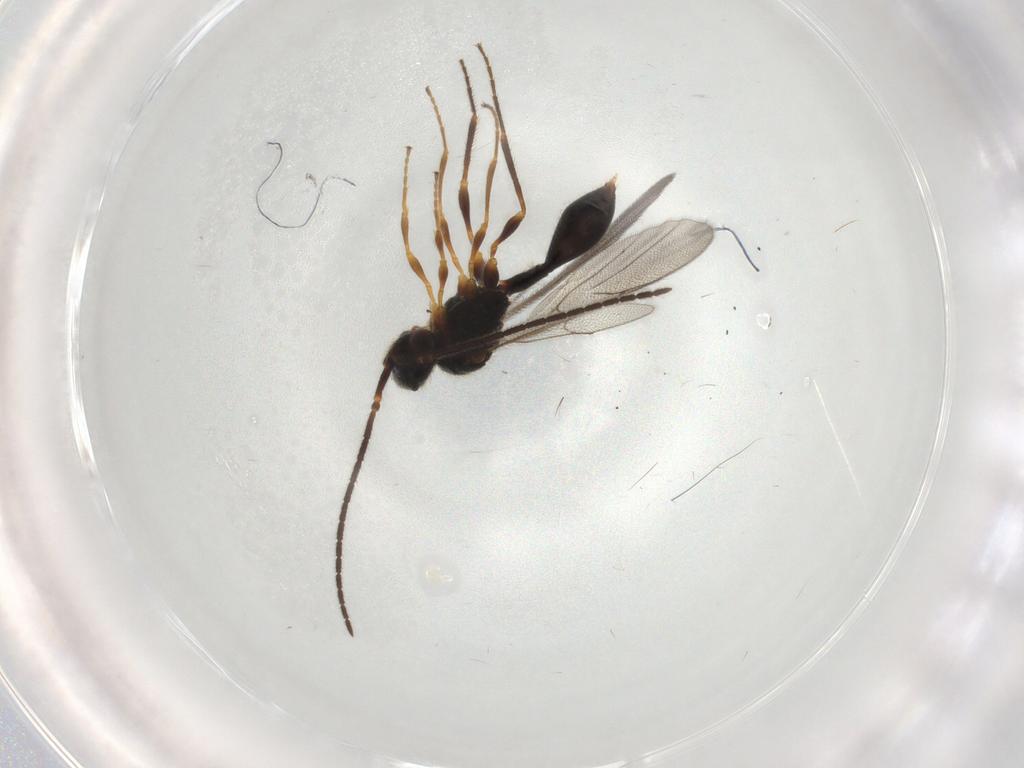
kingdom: Animalia
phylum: Arthropoda
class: Insecta
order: Hymenoptera
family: Diapriidae
